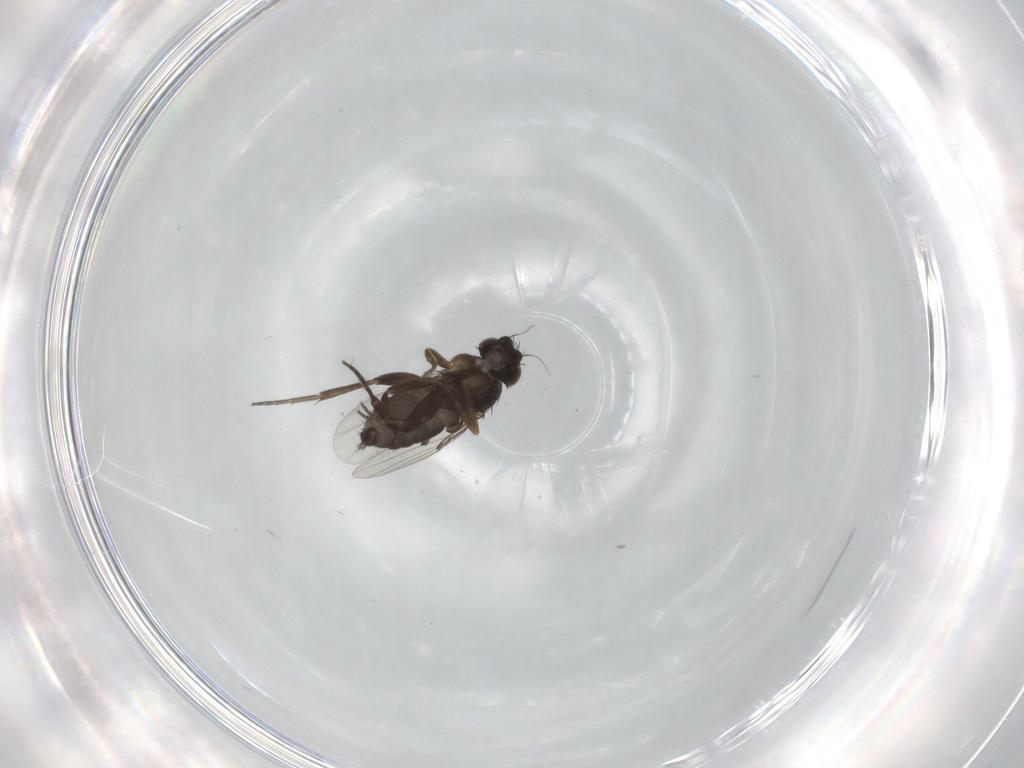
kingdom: Animalia
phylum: Arthropoda
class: Insecta
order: Diptera
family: Phoridae
